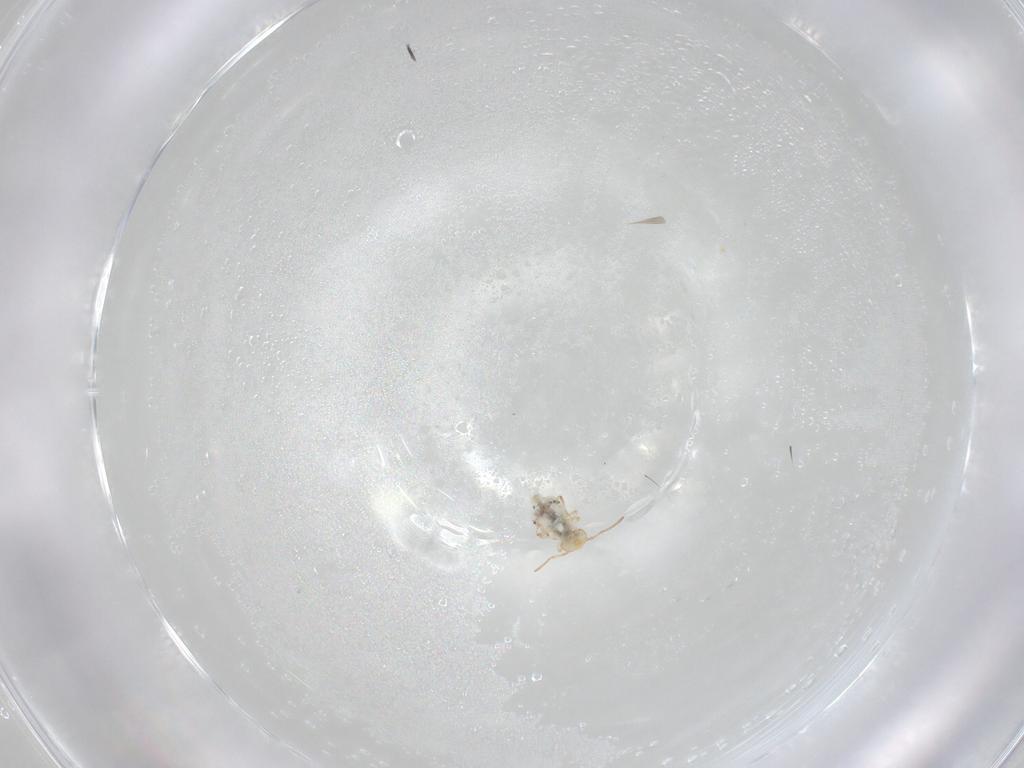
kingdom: Animalia
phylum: Arthropoda
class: Collembola
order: Symphypleona
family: Bourletiellidae
